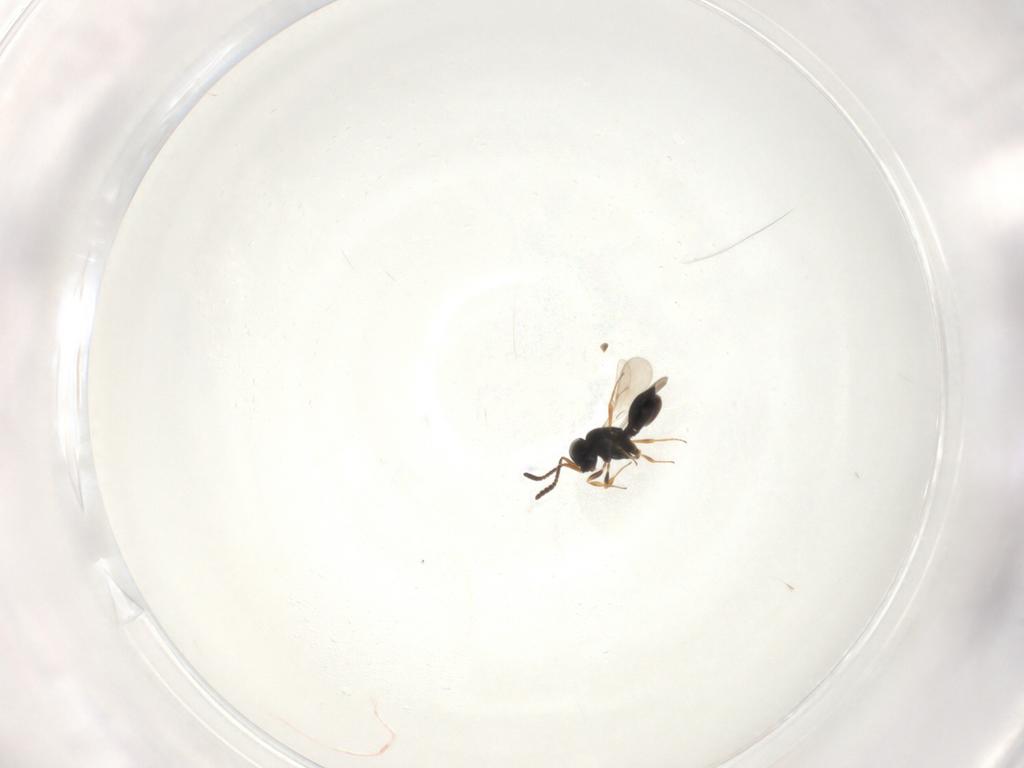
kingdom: Animalia
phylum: Arthropoda
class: Insecta
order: Hymenoptera
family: Scelionidae
